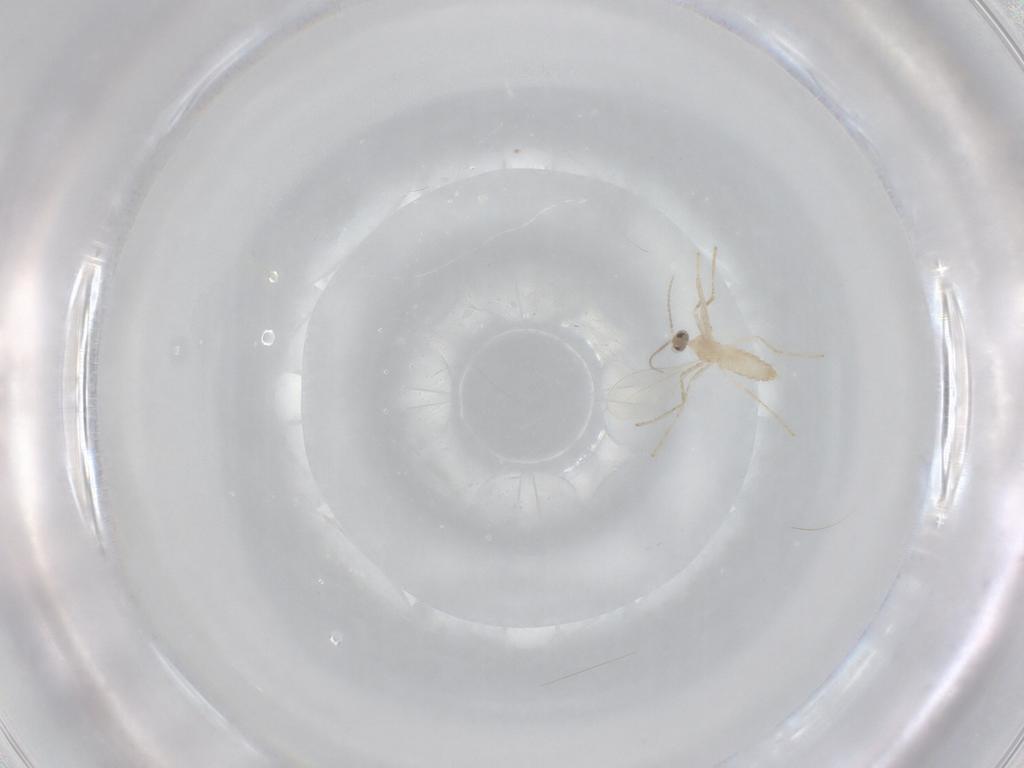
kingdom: Animalia
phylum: Arthropoda
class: Insecta
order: Diptera
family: Cecidomyiidae
